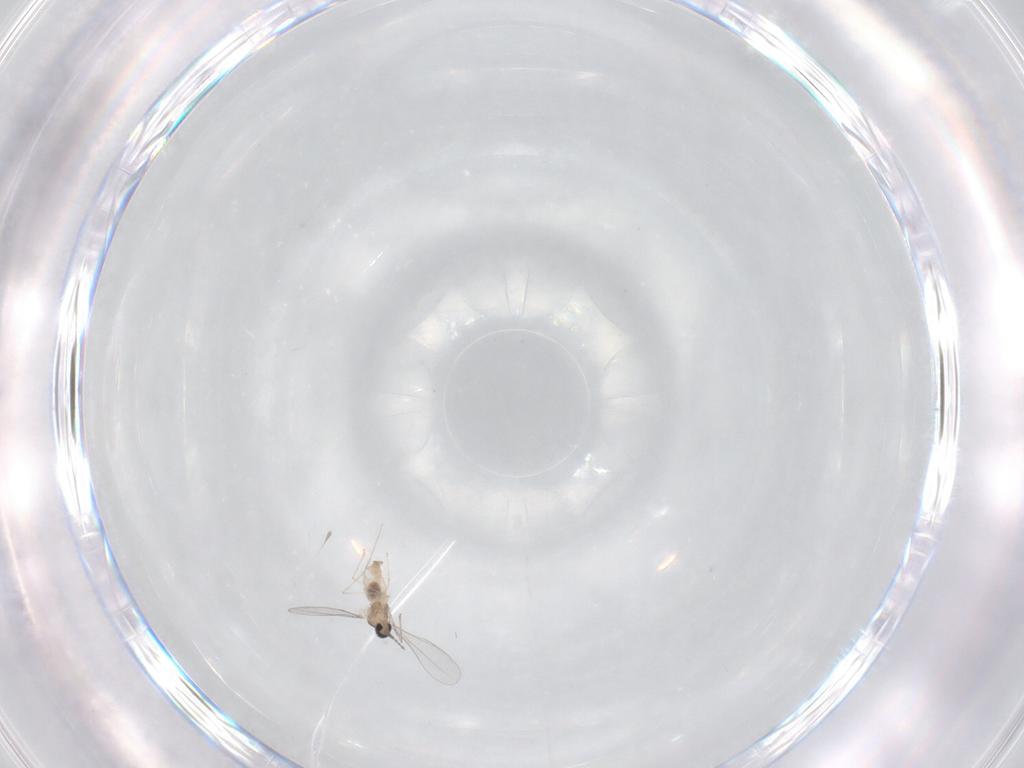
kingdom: Animalia
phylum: Arthropoda
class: Insecta
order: Diptera
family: Cecidomyiidae
